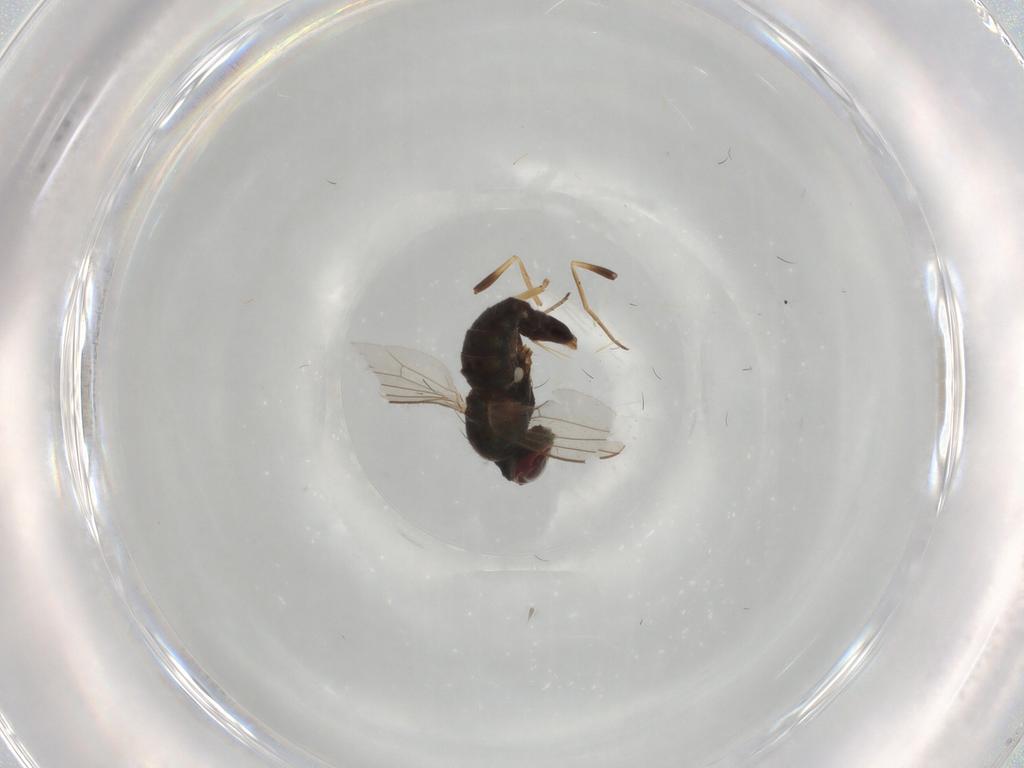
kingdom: Animalia
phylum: Arthropoda
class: Insecta
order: Diptera
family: Dolichopodidae
